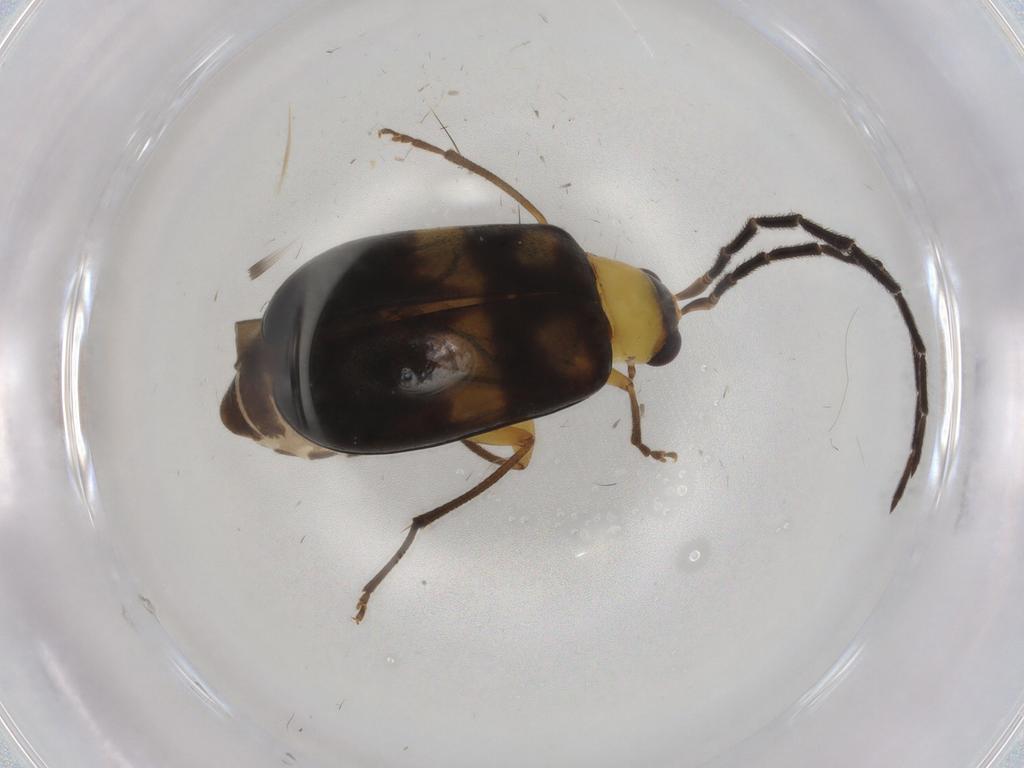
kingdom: Animalia
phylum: Arthropoda
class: Insecta
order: Coleoptera
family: Chrysomelidae
